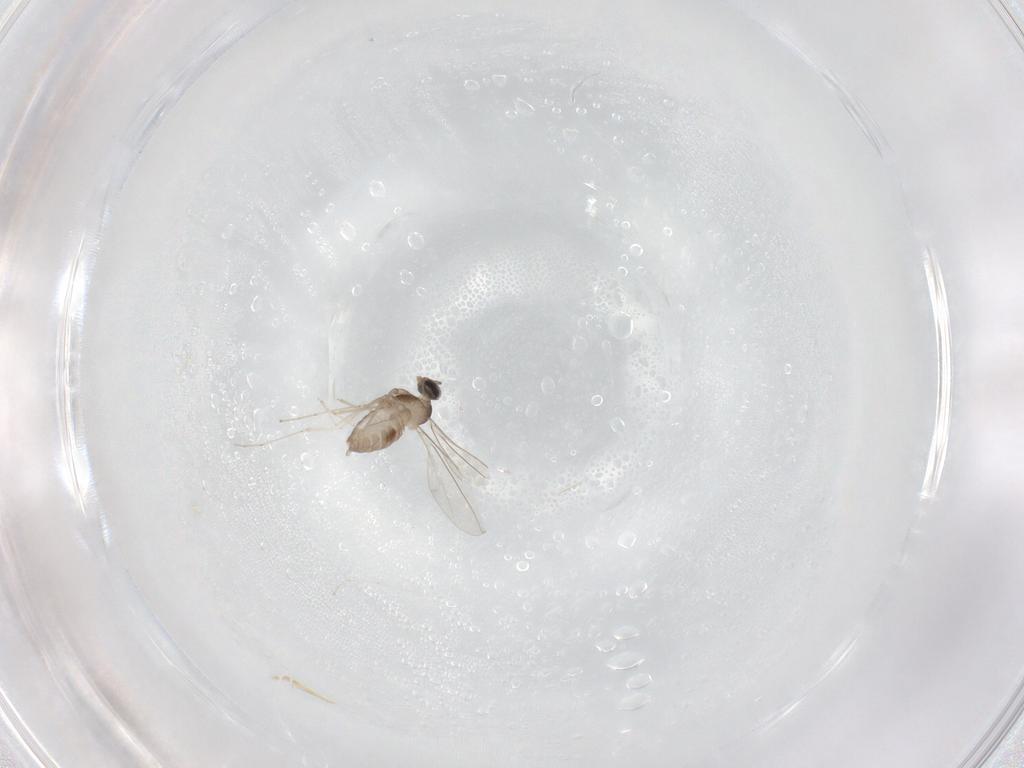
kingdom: Animalia
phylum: Arthropoda
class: Insecta
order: Diptera
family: Cecidomyiidae
